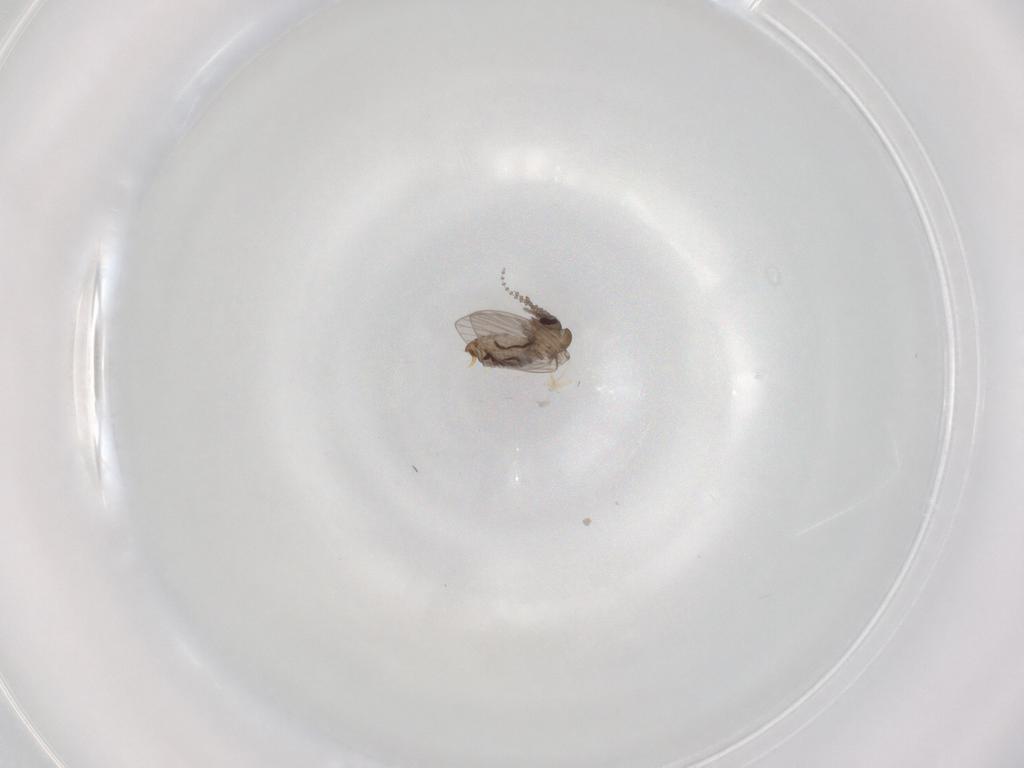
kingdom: Animalia
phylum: Arthropoda
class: Insecta
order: Diptera
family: Psychodidae
